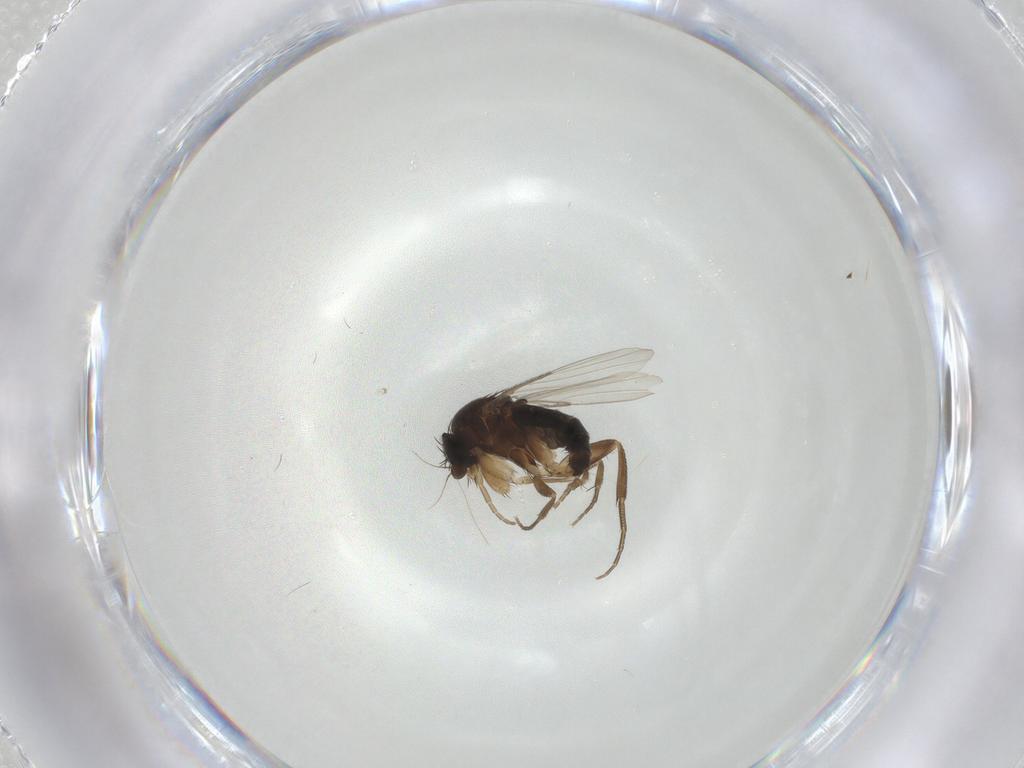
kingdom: Animalia
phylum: Arthropoda
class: Insecta
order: Diptera
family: Phoridae
